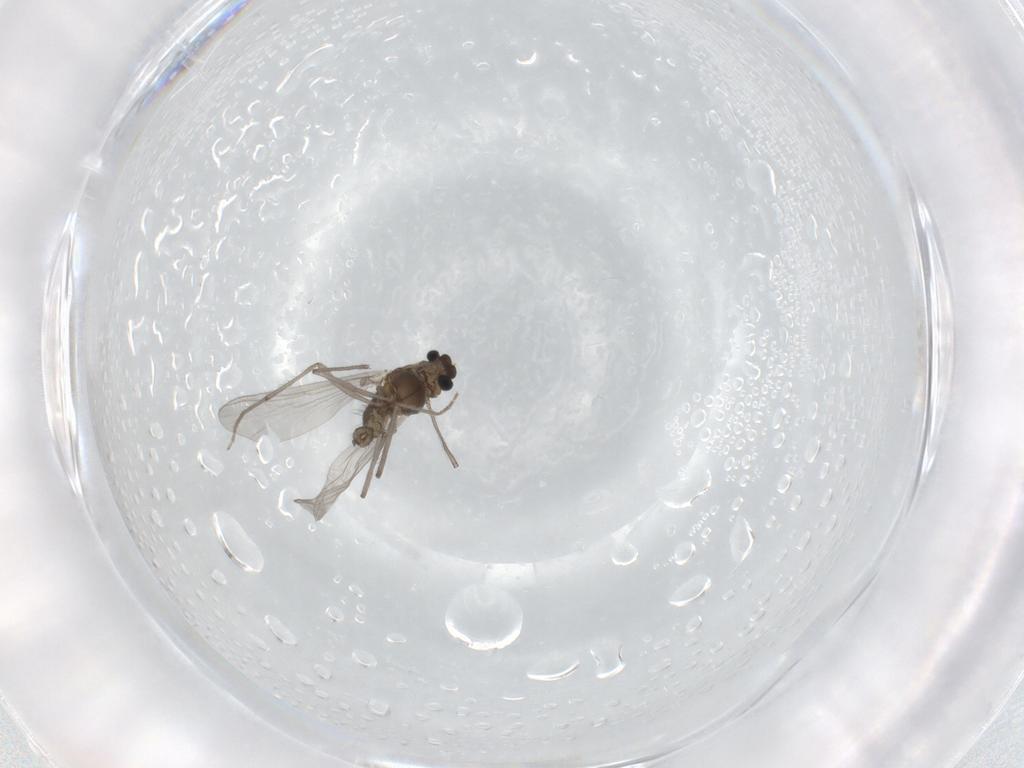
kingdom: Animalia
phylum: Arthropoda
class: Insecta
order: Diptera
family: Chironomidae
